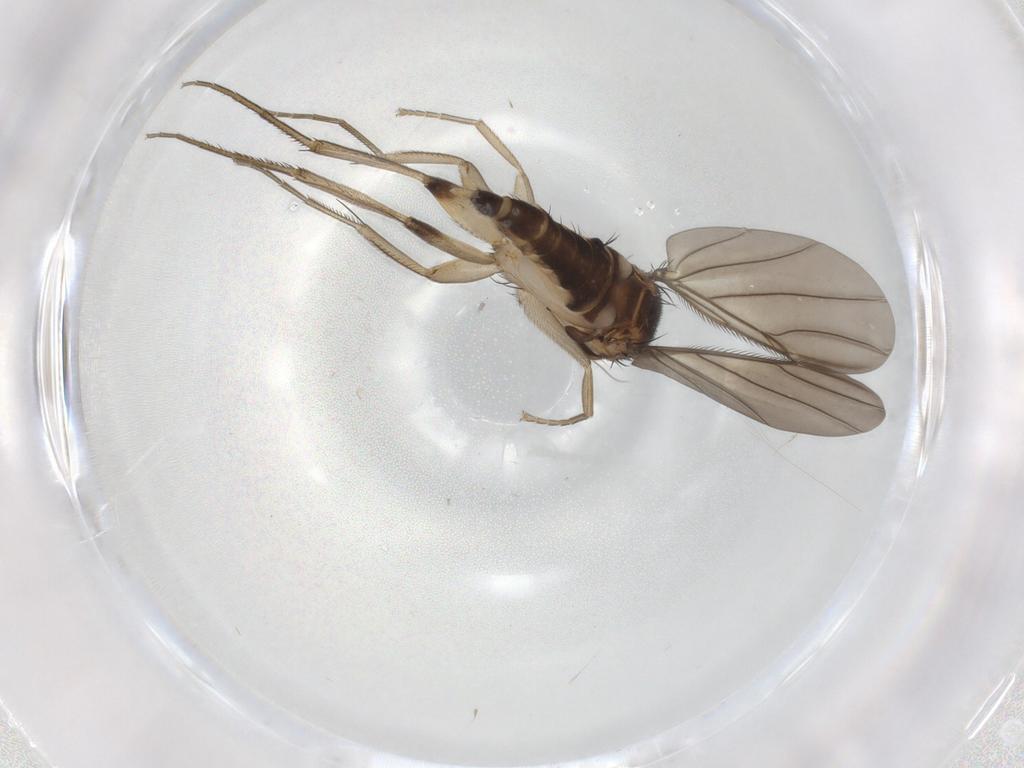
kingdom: Animalia
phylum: Arthropoda
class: Insecta
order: Diptera
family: Phoridae
